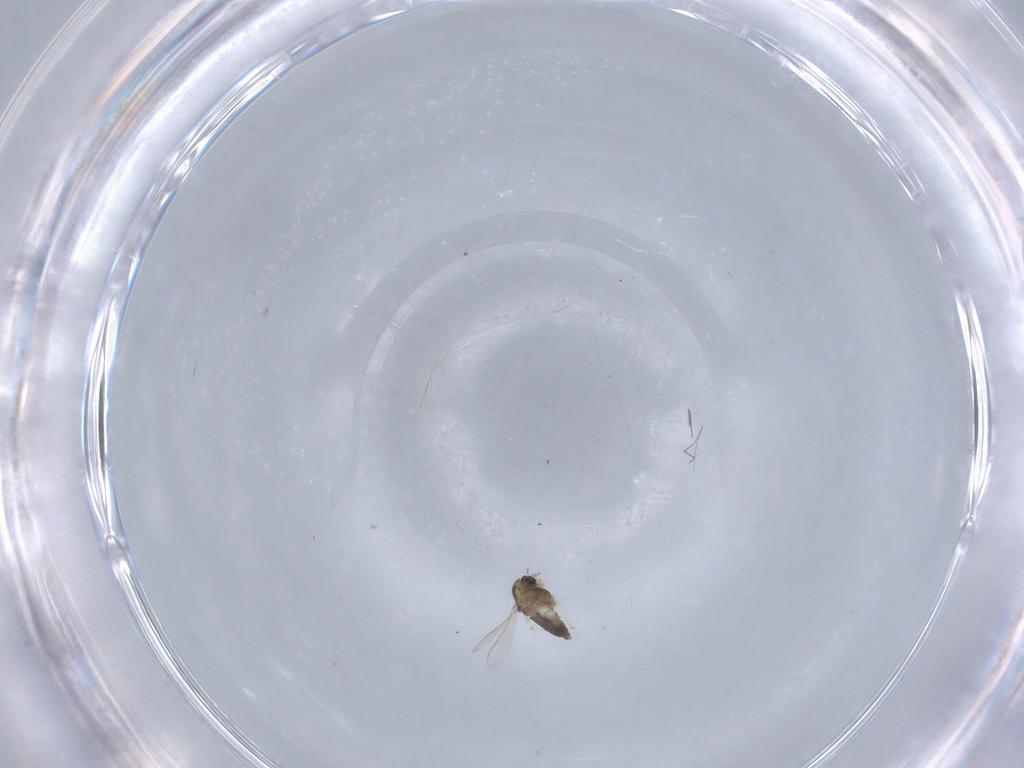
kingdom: Animalia
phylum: Arthropoda
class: Insecta
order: Diptera
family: Chironomidae
